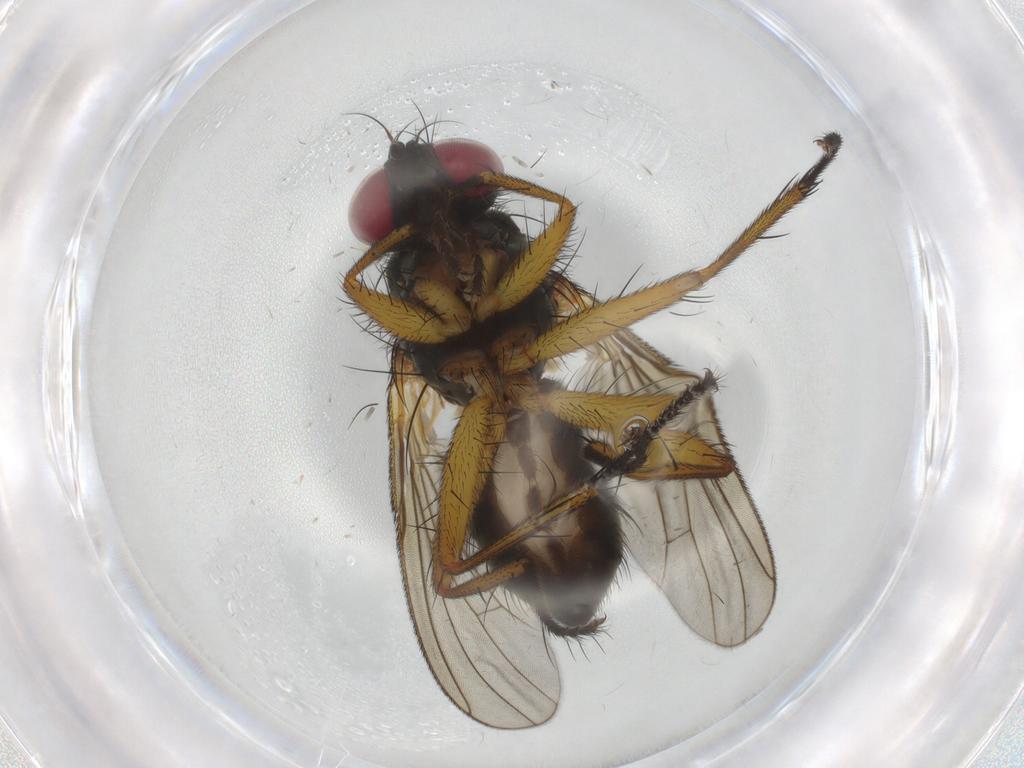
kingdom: Animalia
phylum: Arthropoda
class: Insecta
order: Diptera
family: Muscidae
